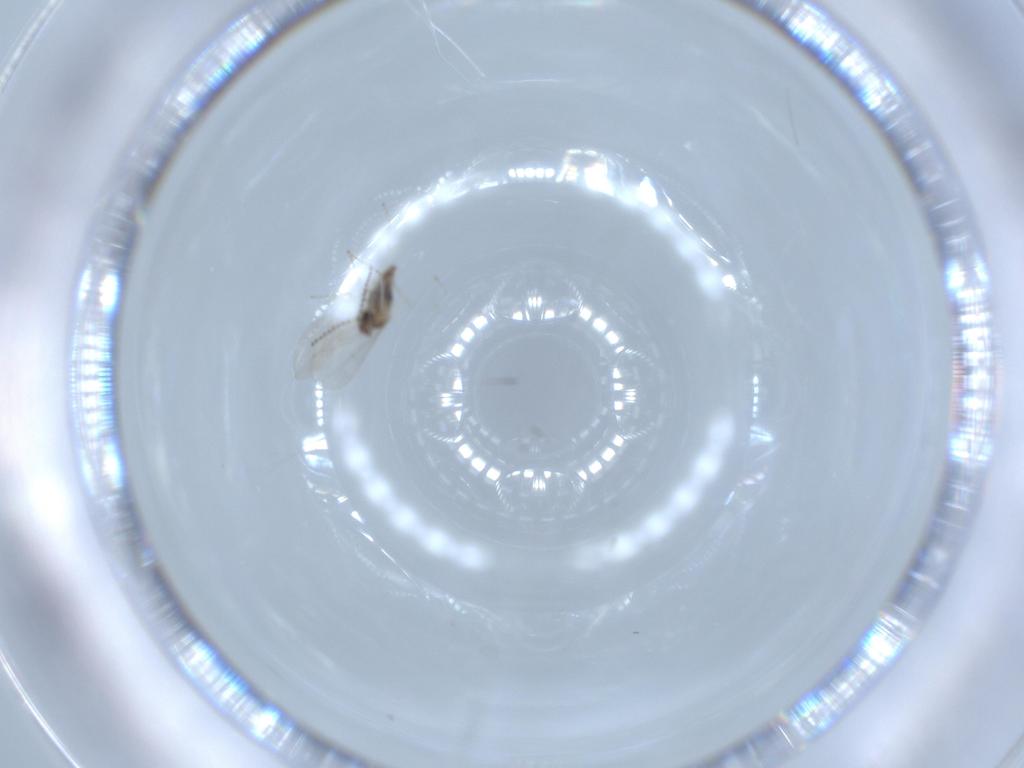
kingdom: Animalia
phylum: Arthropoda
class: Insecta
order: Diptera
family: Cecidomyiidae
